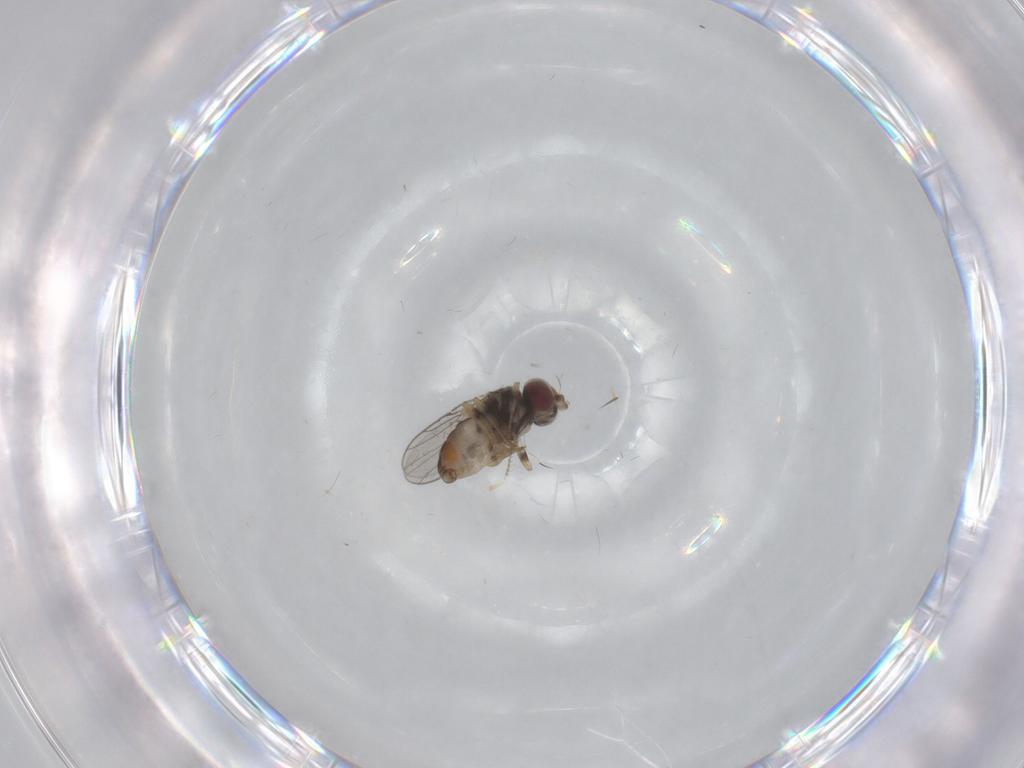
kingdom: Animalia
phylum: Arthropoda
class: Insecta
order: Diptera
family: Chloropidae
